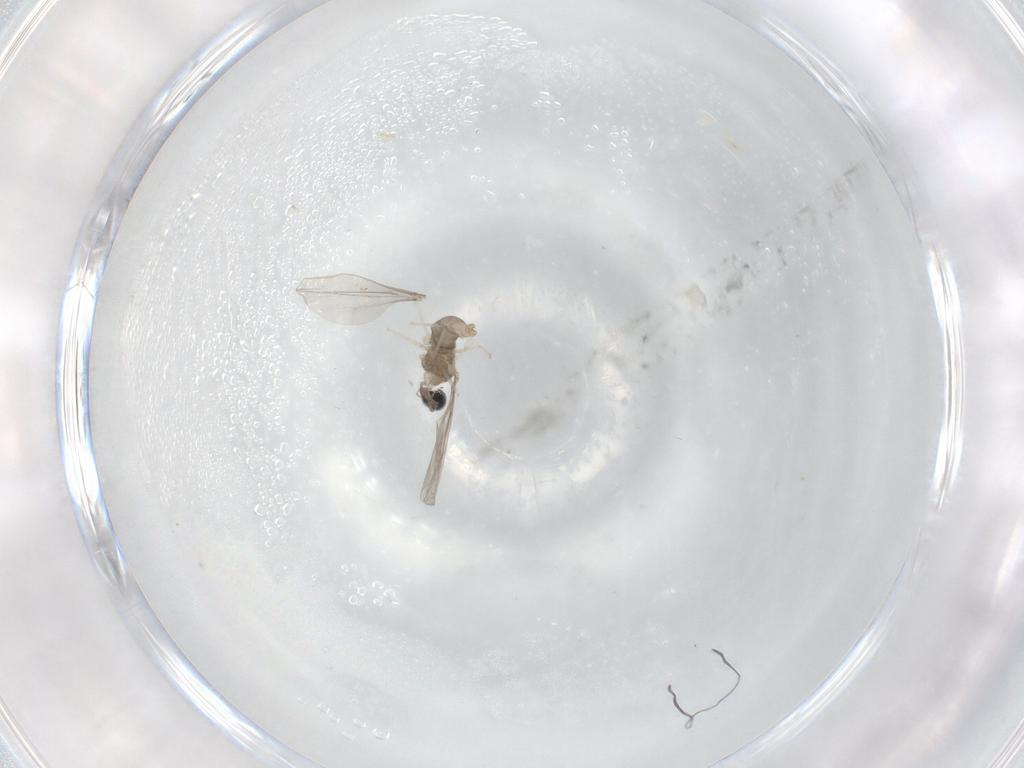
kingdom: Animalia
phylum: Arthropoda
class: Insecta
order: Diptera
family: Cecidomyiidae
